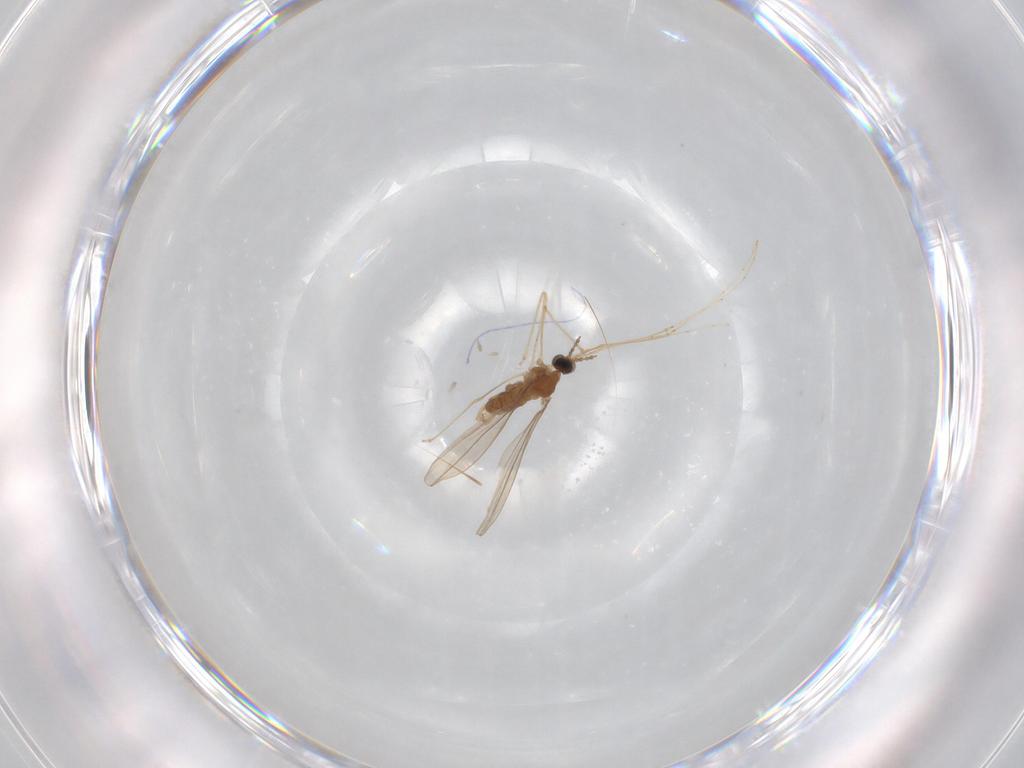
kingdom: Animalia
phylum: Arthropoda
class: Insecta
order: Diptera
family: Cecidomyiidae
